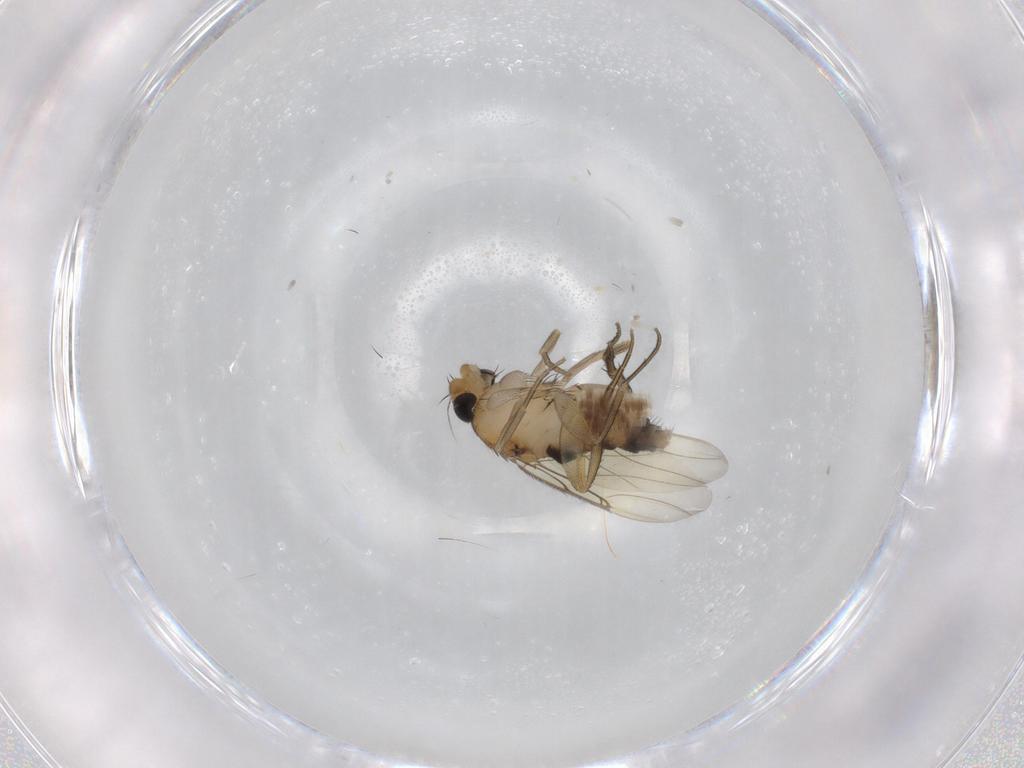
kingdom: Animalia
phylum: Arthropoda
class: Insecta
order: Diptera
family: Phoridae
